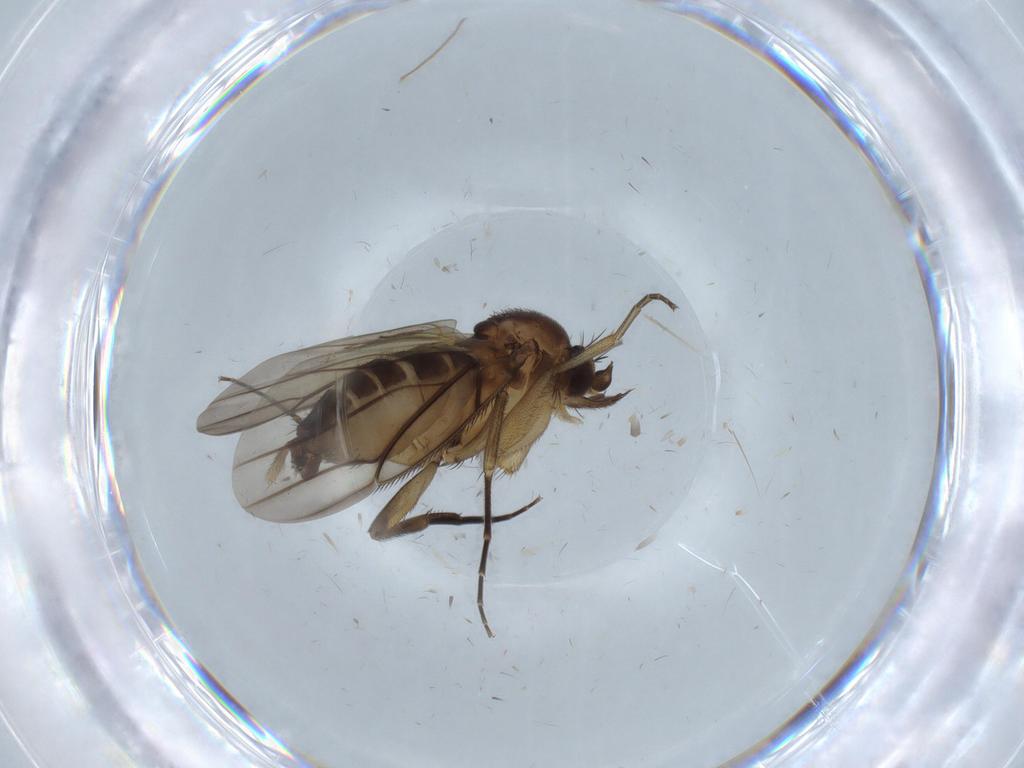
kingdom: Animalia
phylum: Arthropoda
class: Insecta
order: Diptera
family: Phoridae
